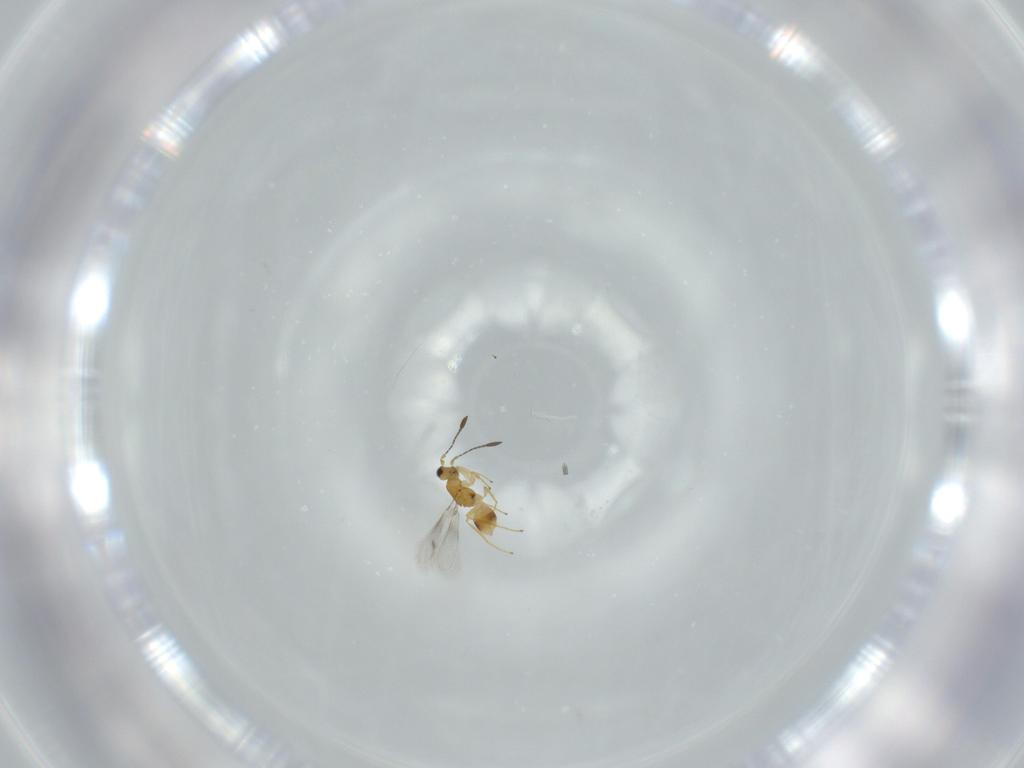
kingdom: Animalia
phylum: Arthropoda
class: Insecta
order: Hymenoptera
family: Mymaridae
